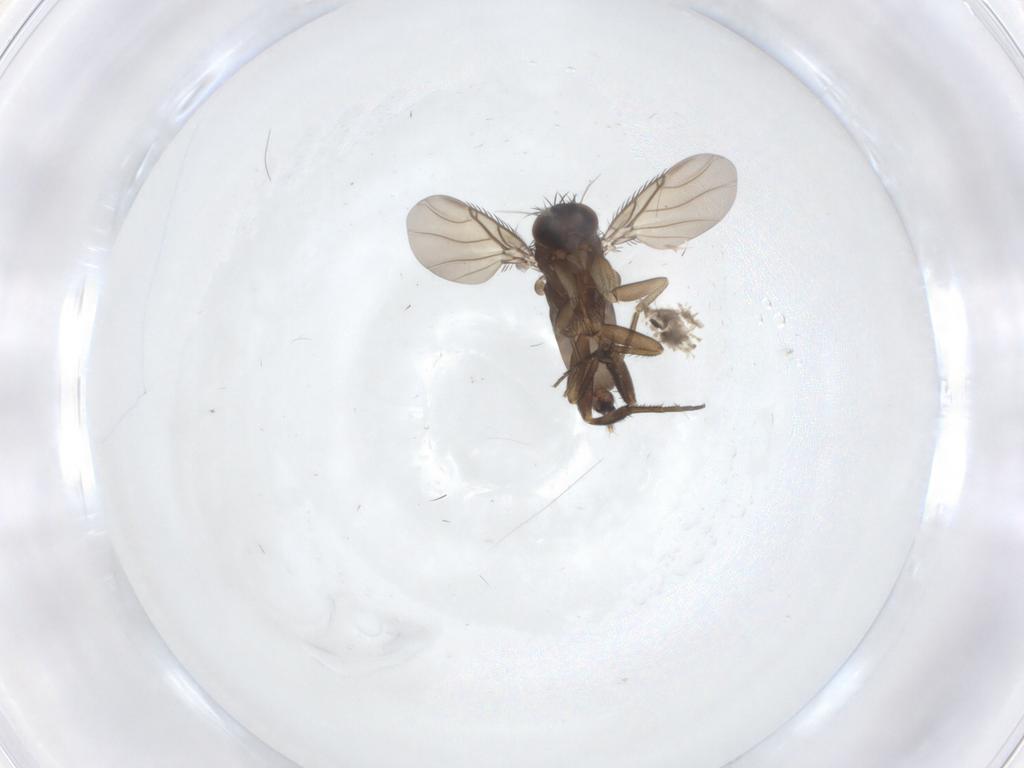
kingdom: Animalia
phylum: Arthropoda
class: Insecta
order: Diptera
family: Phoridae
